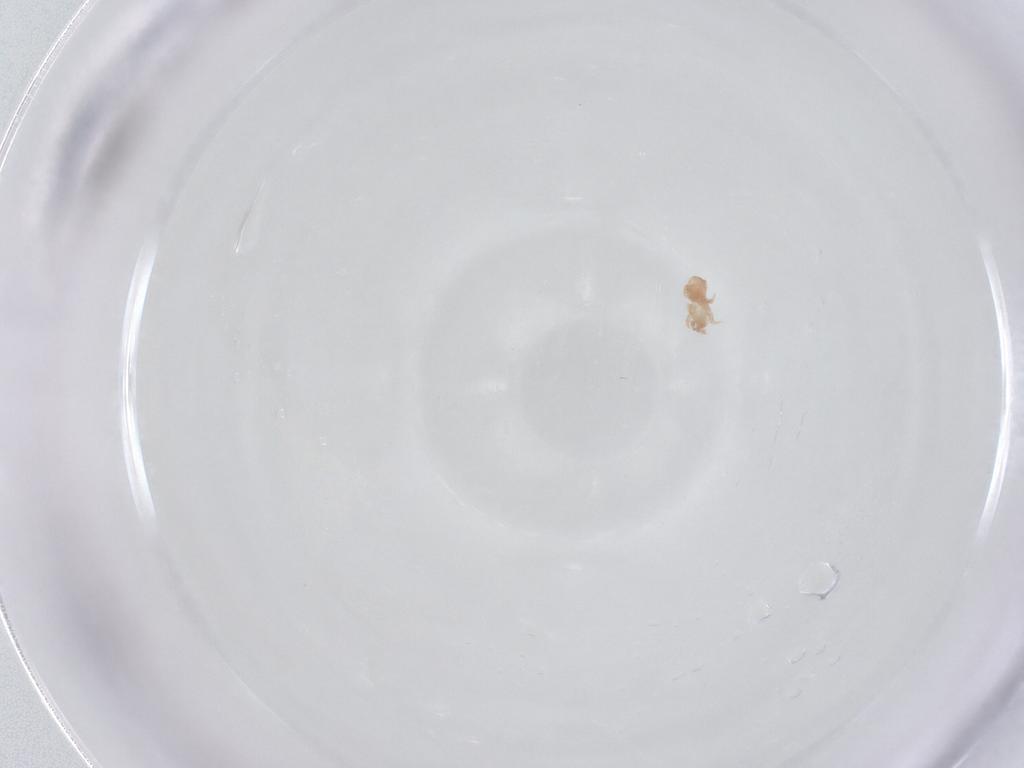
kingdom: Animalia
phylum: Arthropoda
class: Arachnida
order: Mesostigmata
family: Digamasellidae
